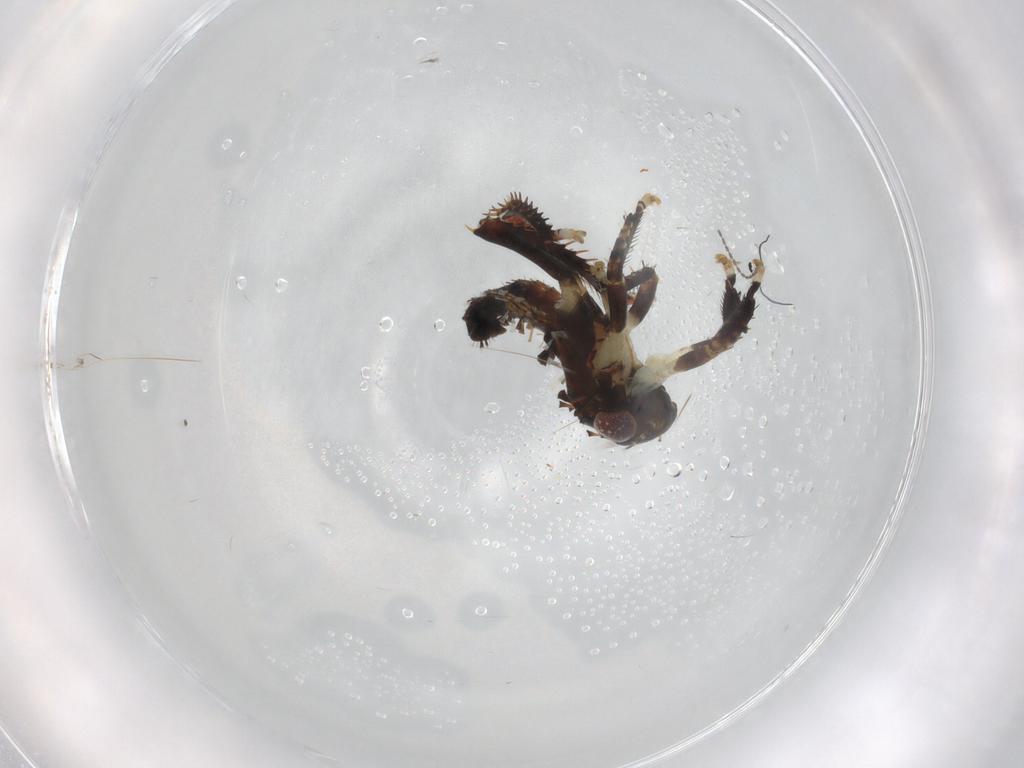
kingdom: Animalia
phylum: Arthropoda
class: Insecta
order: Hemiptera
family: Cicadellidae
